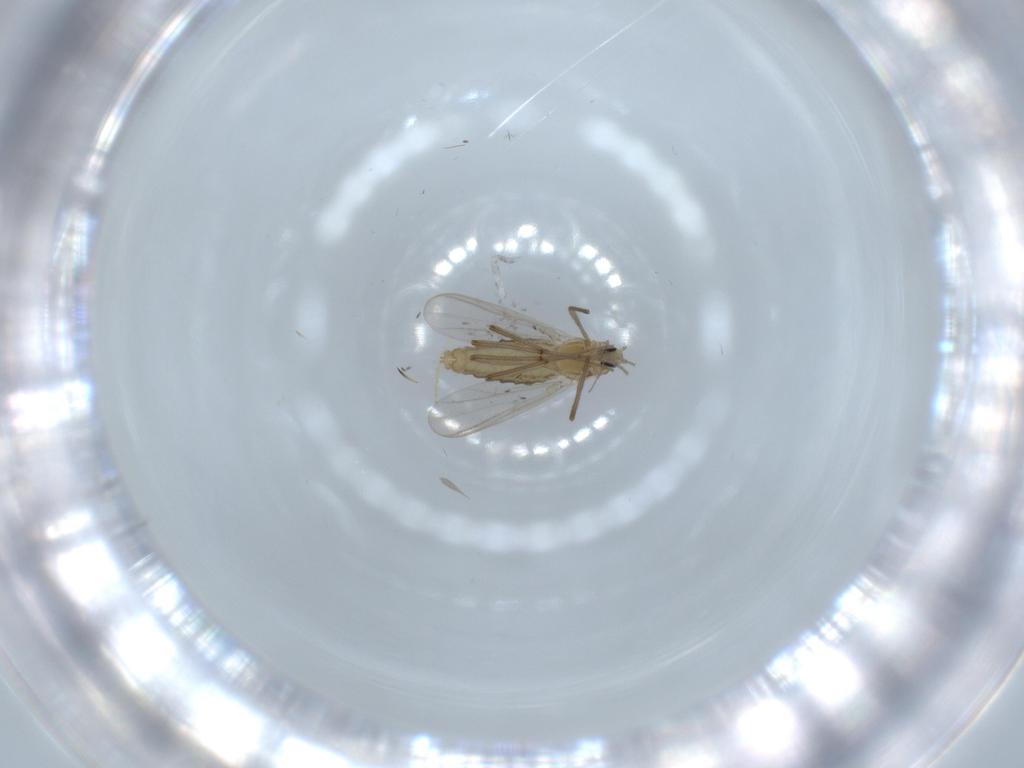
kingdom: Animalia
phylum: Arthropoda
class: Insecta
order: Diptera
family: Chironomidae
